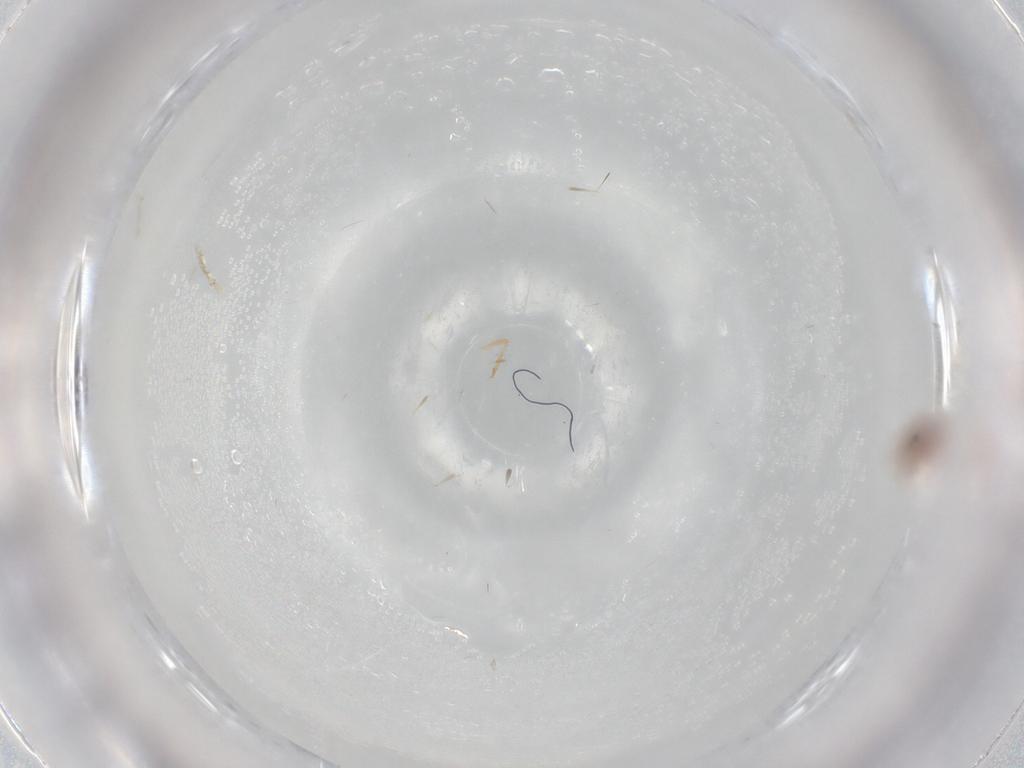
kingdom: Animalia
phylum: Arthropoda
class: Insecta
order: Hemiptera
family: Coccoidea_incertae_sedis
